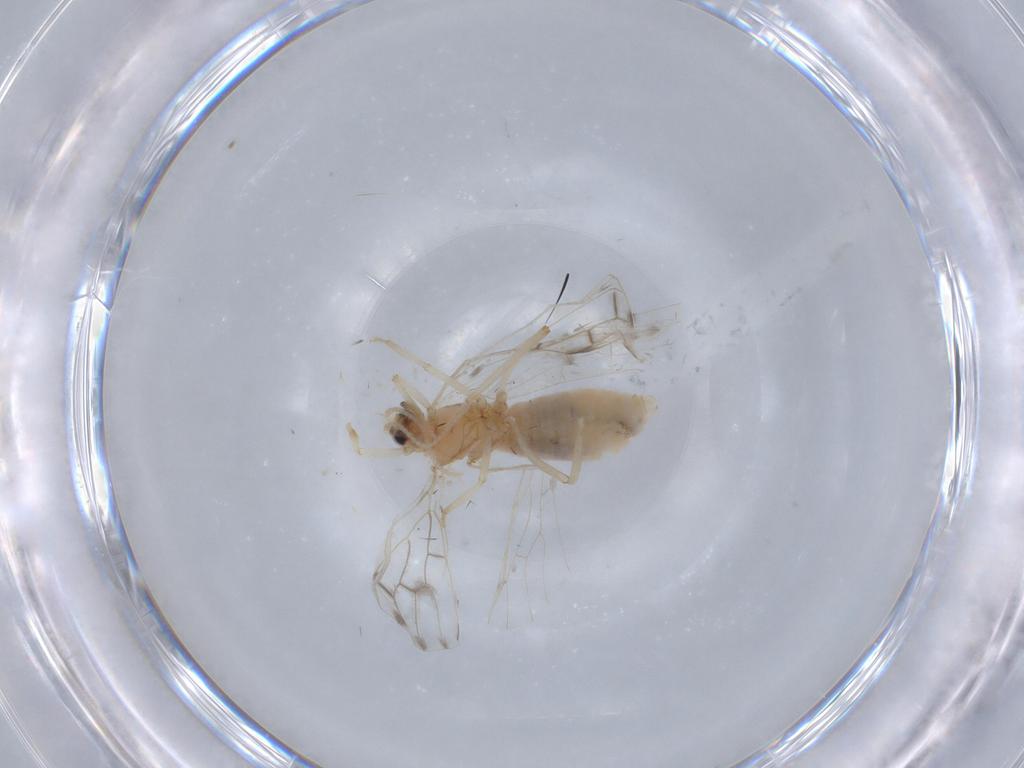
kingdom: Animalia
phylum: Arthropoda
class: Insecta
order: Neuroptera
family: Coniopterygidae
